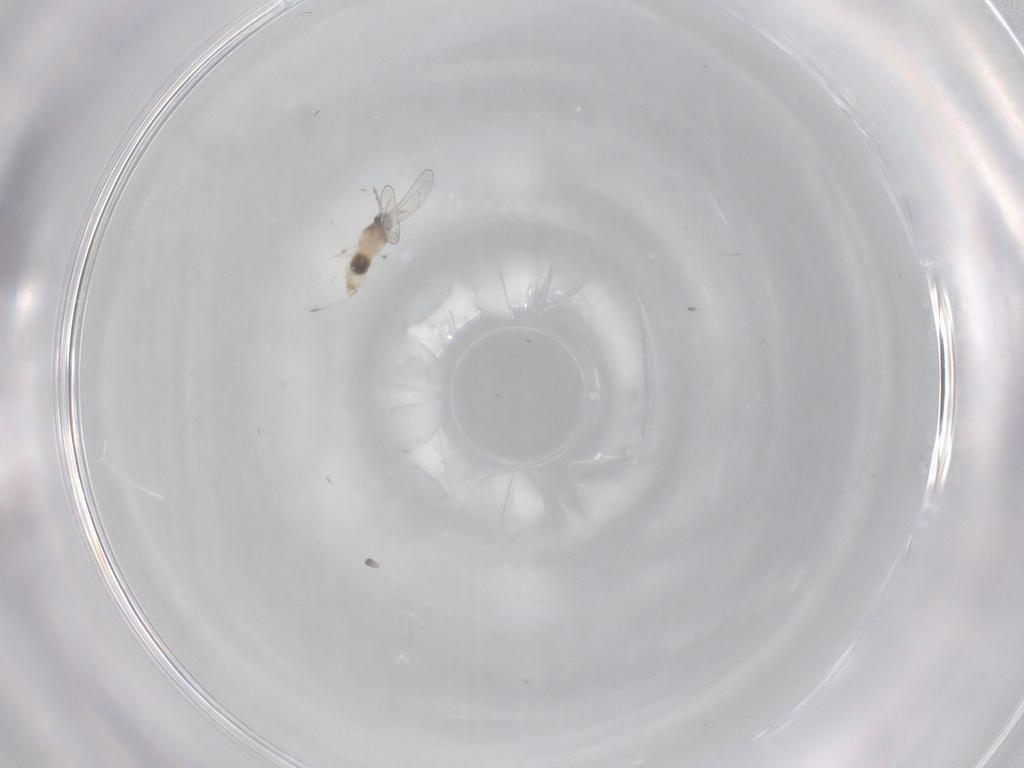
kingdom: Animalia
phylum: Arthropoda
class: Insecta
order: Diptera
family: Cecidomyiidae
